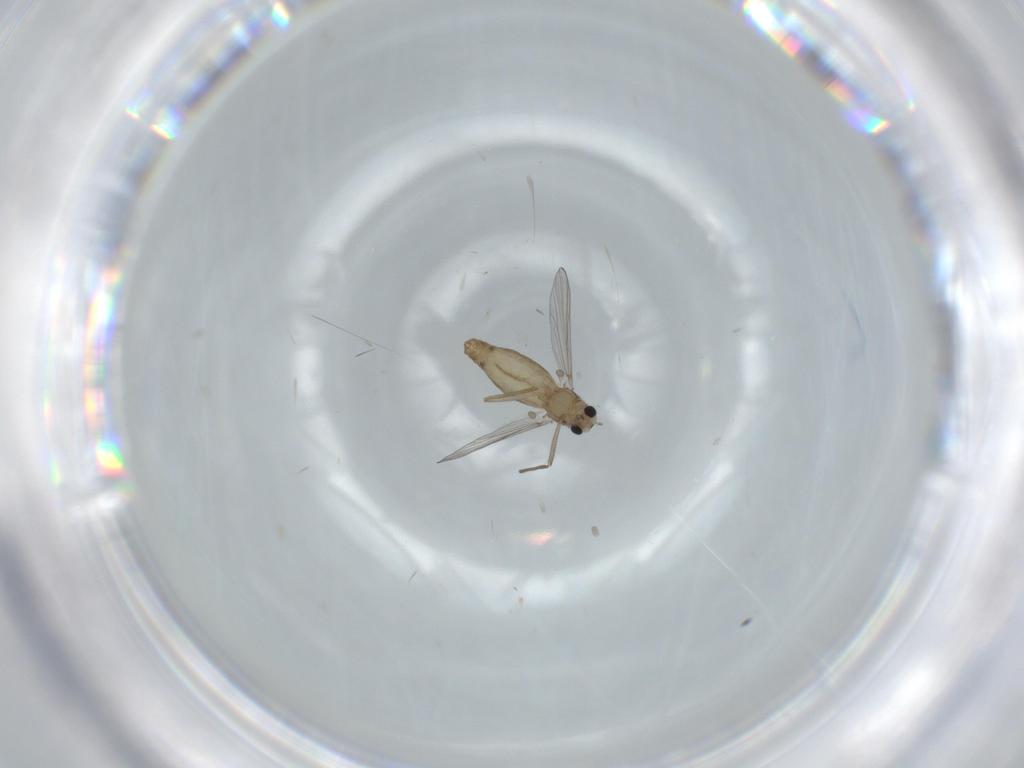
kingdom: Animalia
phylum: Arthropoda
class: Insecta
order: Diptera
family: Chironomidae
